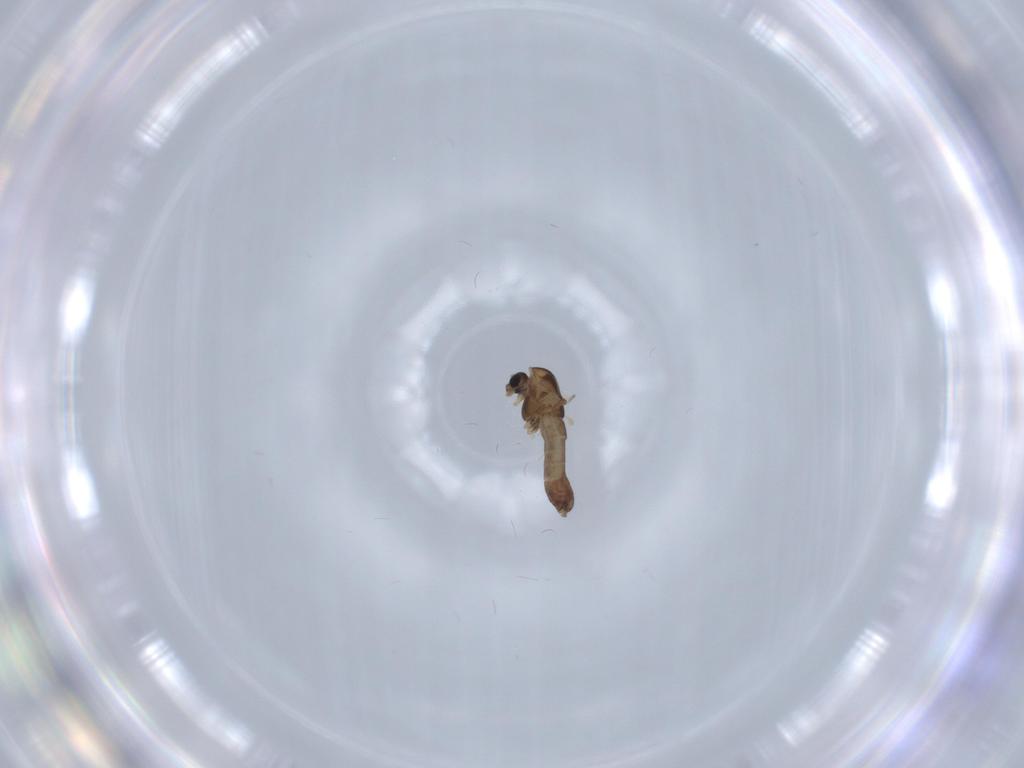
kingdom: Animalia
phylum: Arthropoda
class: Insecta
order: Diptera
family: Chironomidae
